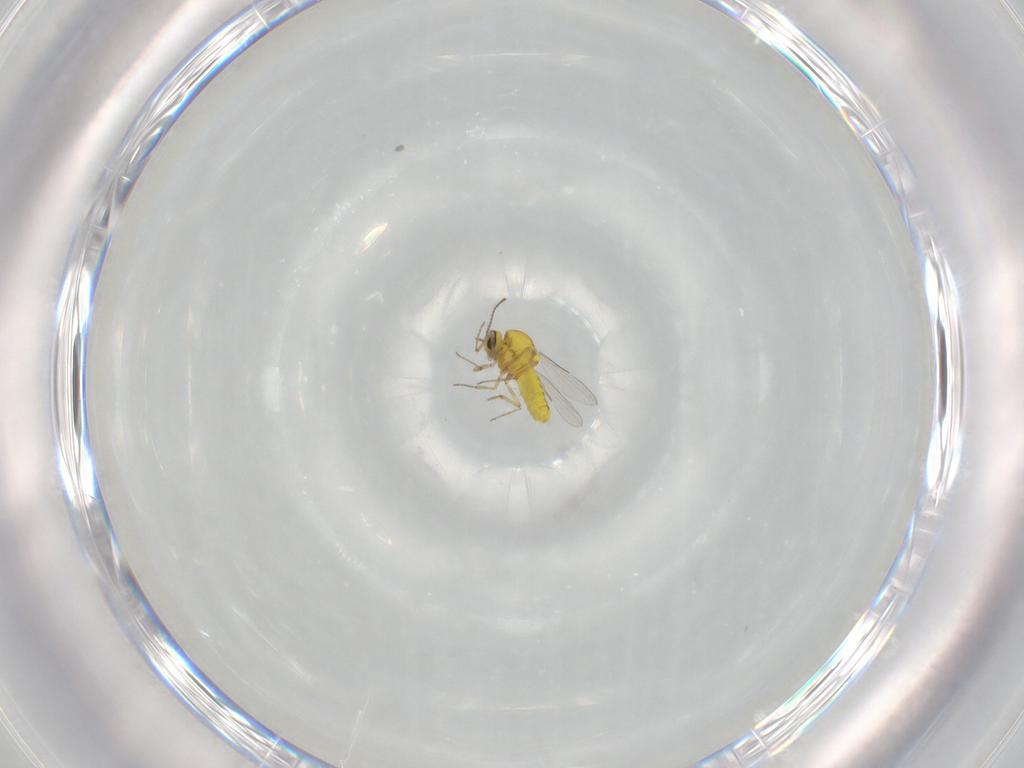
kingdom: Animalia
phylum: Arthropoda
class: Insecta
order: Diptera
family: Ceratopogonidae
